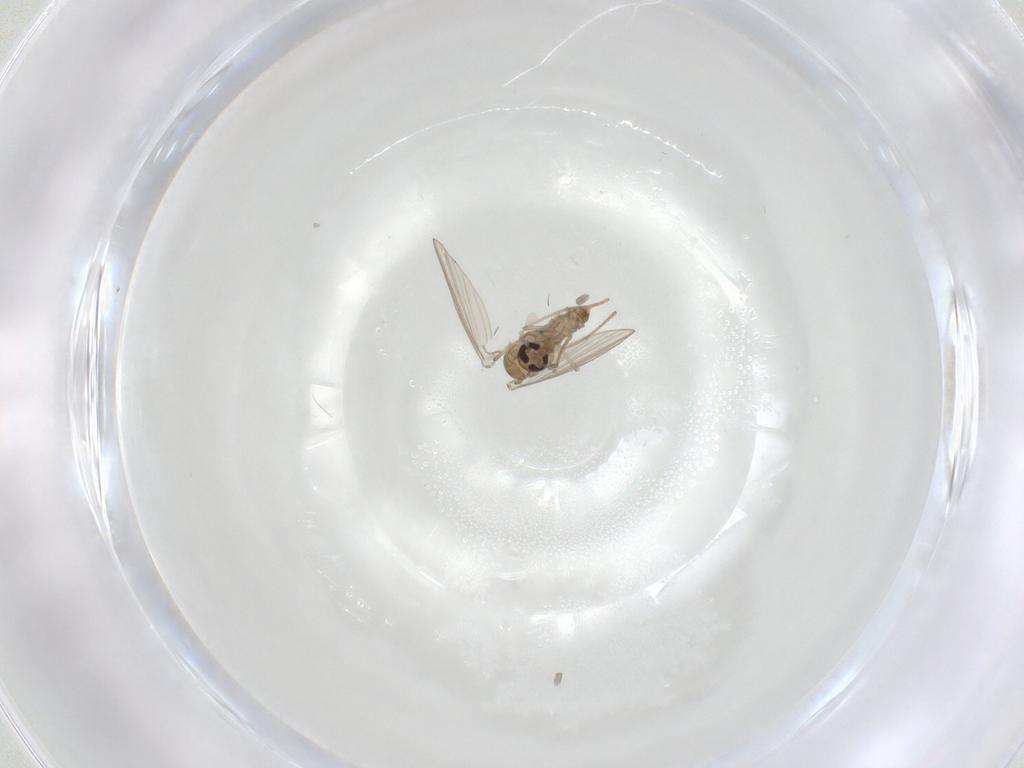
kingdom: Animalia
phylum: Arthropoda
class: Insecta
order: Diptera
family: Psychodidae
